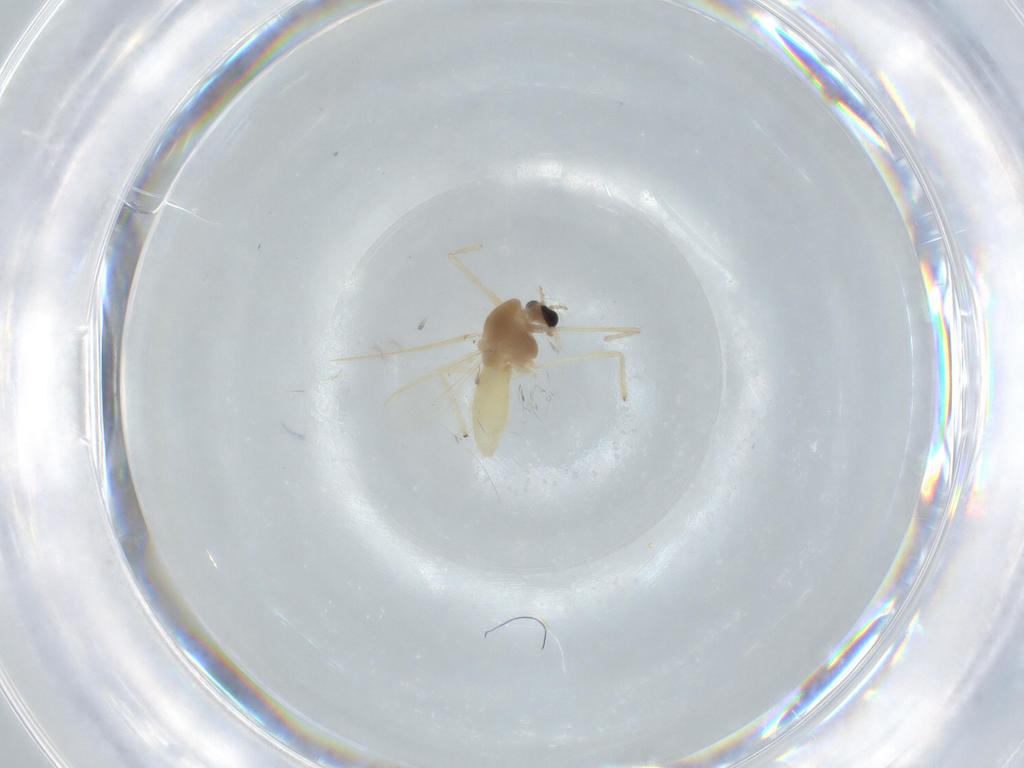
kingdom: Animalia
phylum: Arthropoda
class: Insecta
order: Diptera
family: Chironomidae
